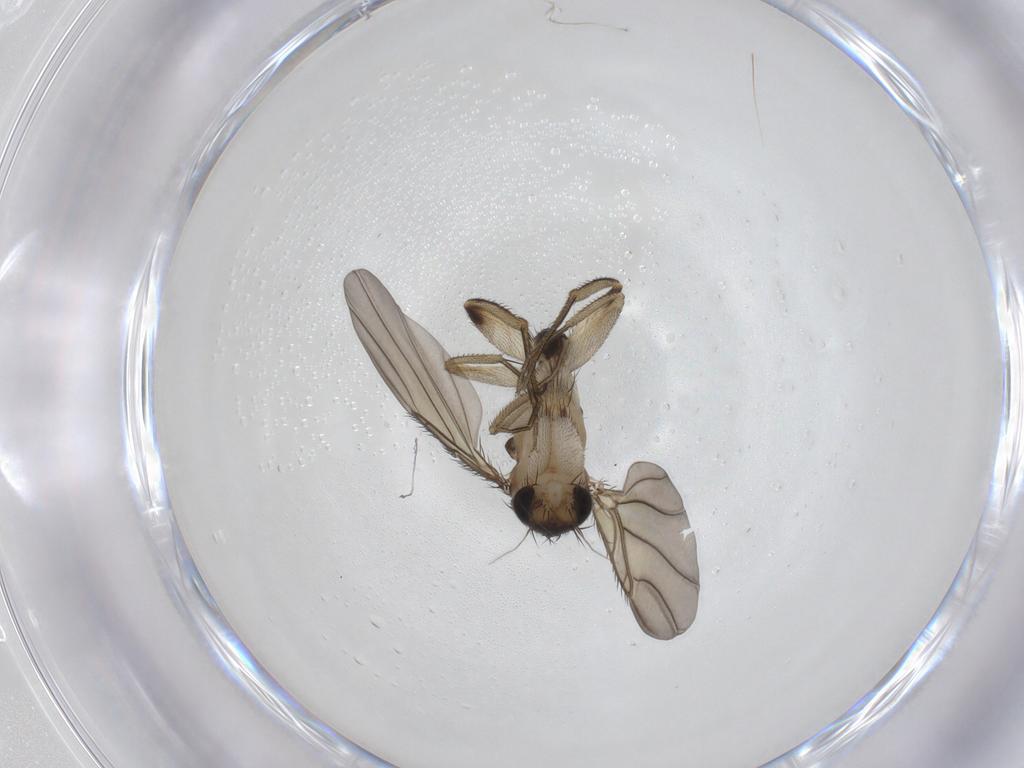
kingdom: Animalia
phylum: Arthropoda
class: Insecta
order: Diptera
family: Phoridae
